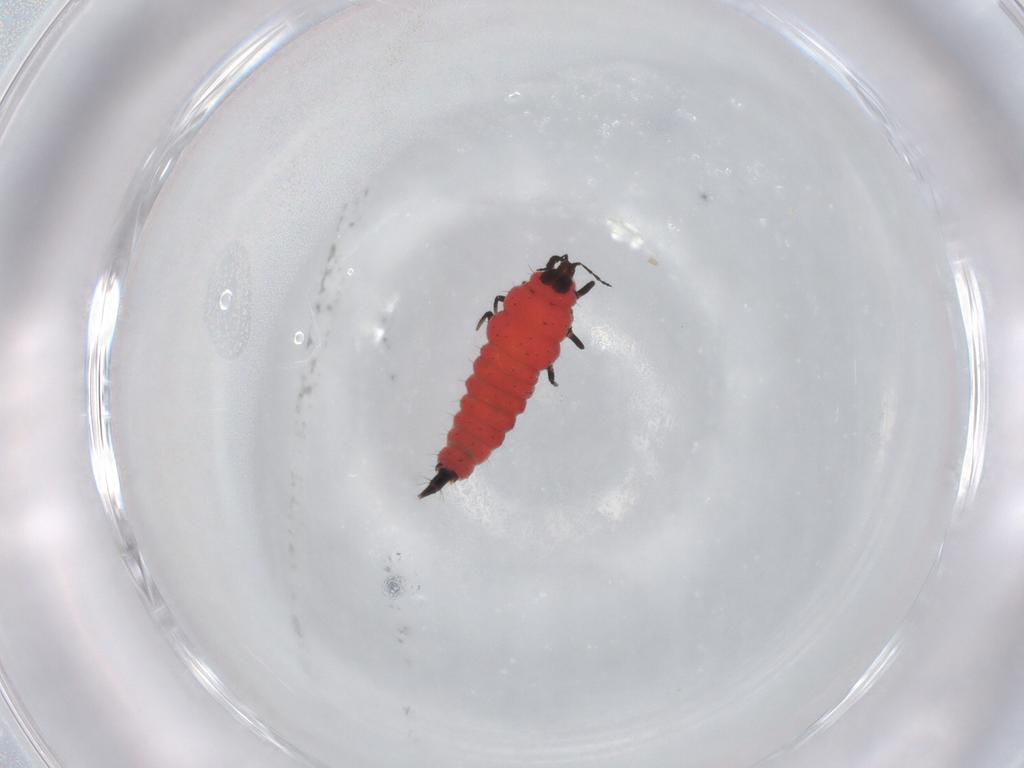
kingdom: Animalia
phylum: Arthropoda
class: Insecta
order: Thysanoptera
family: Phlaeothripidae
